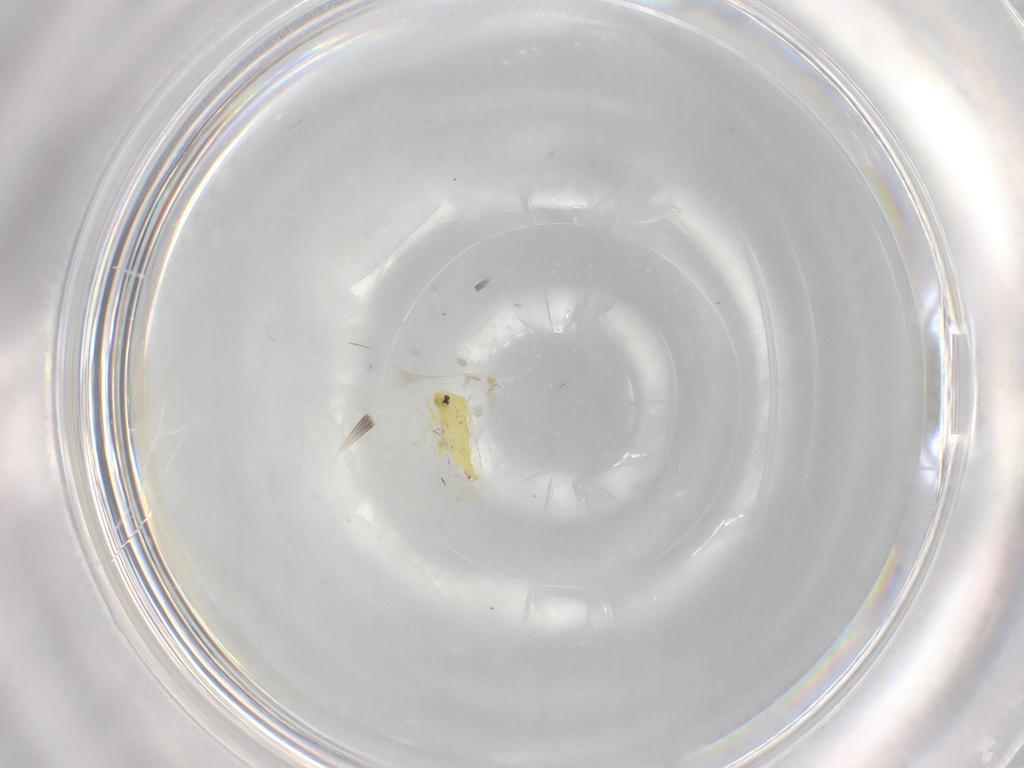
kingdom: Animalia
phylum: Arthropoda
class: Insecta
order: Hemiptera
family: Aleyrodidae
